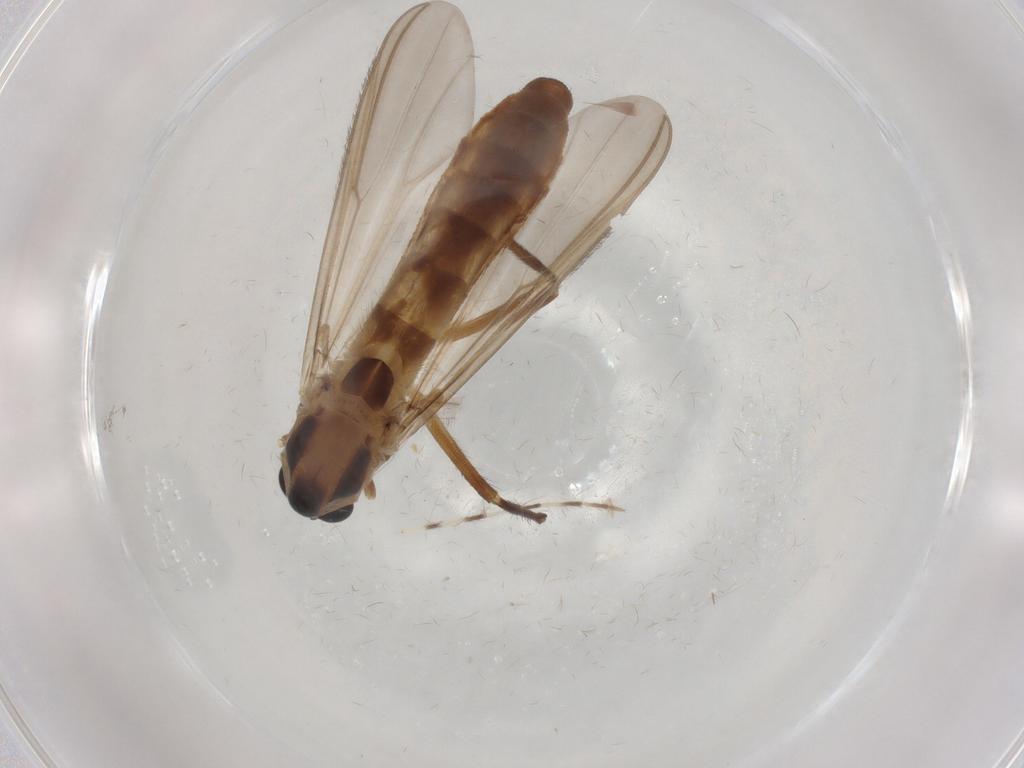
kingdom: Animalia
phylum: Arthropoda
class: Insecta
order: Diptera
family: Chironomidae
